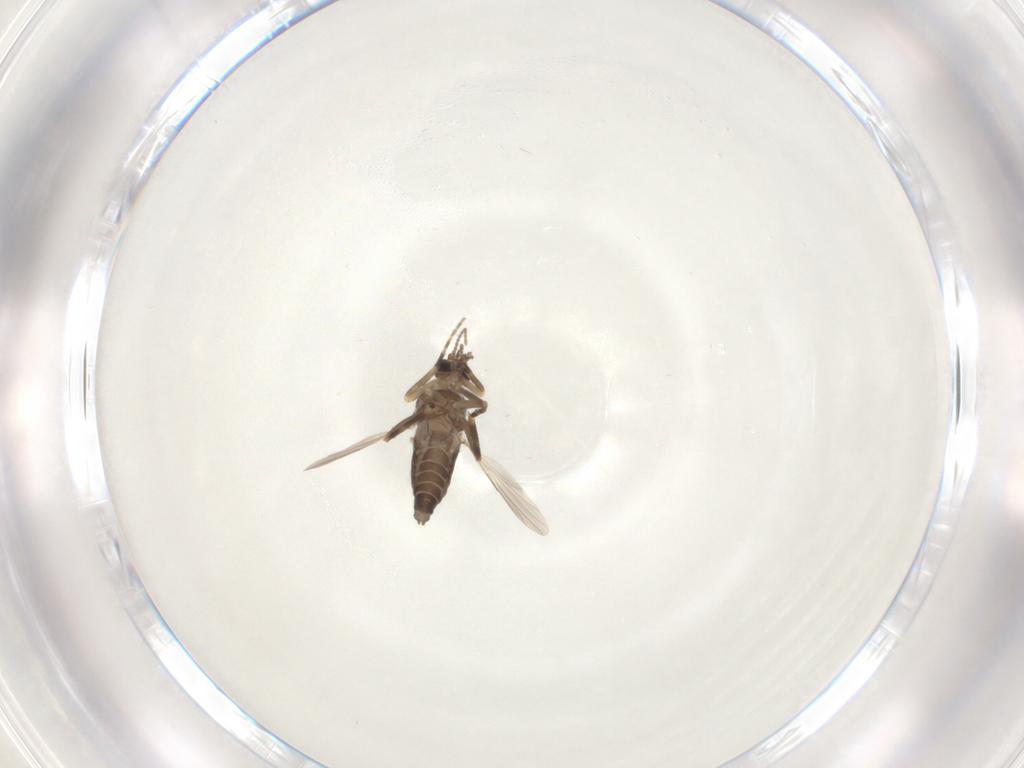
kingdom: Animalia
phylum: Arthropoda
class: Insecta
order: Diptera
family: Ceratopogonidae
